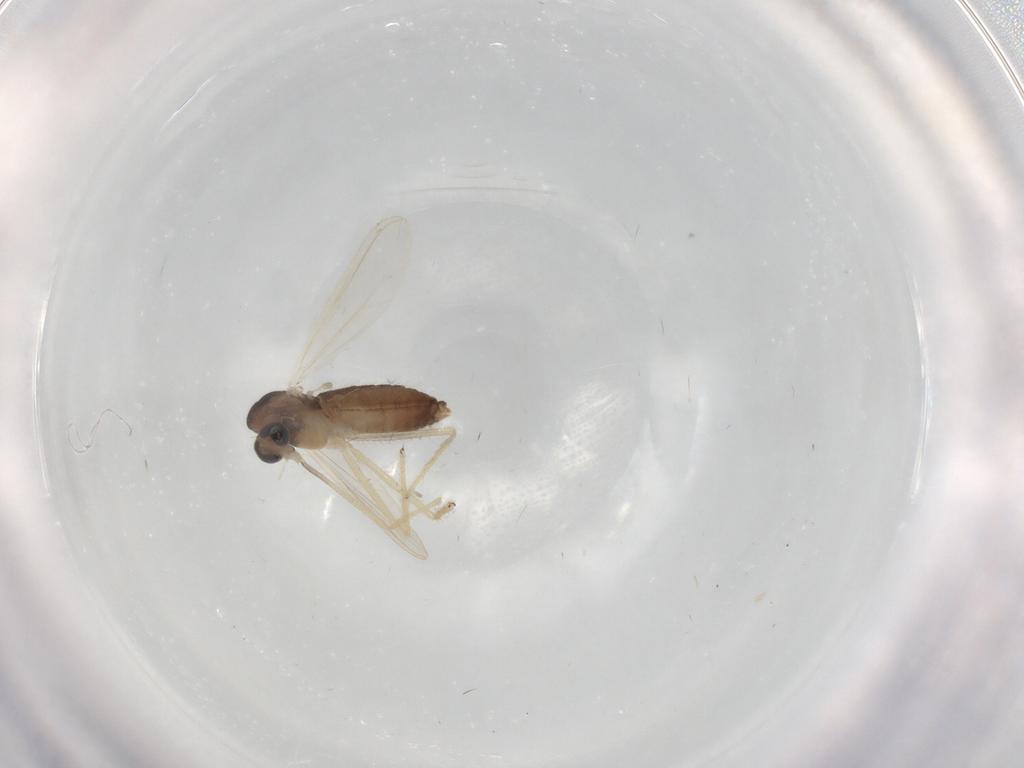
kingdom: Animalia
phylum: Arthropoda
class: Insecta
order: Diptera
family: Chironomidae
